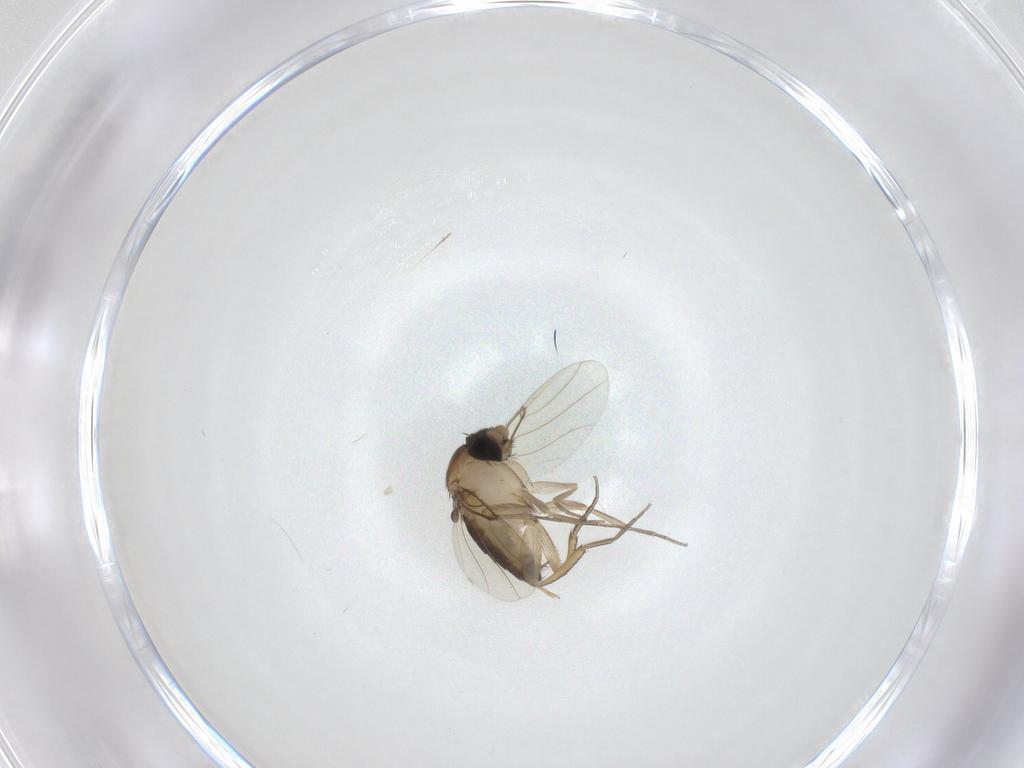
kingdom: Animalia
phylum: Arthropoda
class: Insecta
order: Diptera
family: Phoridae
